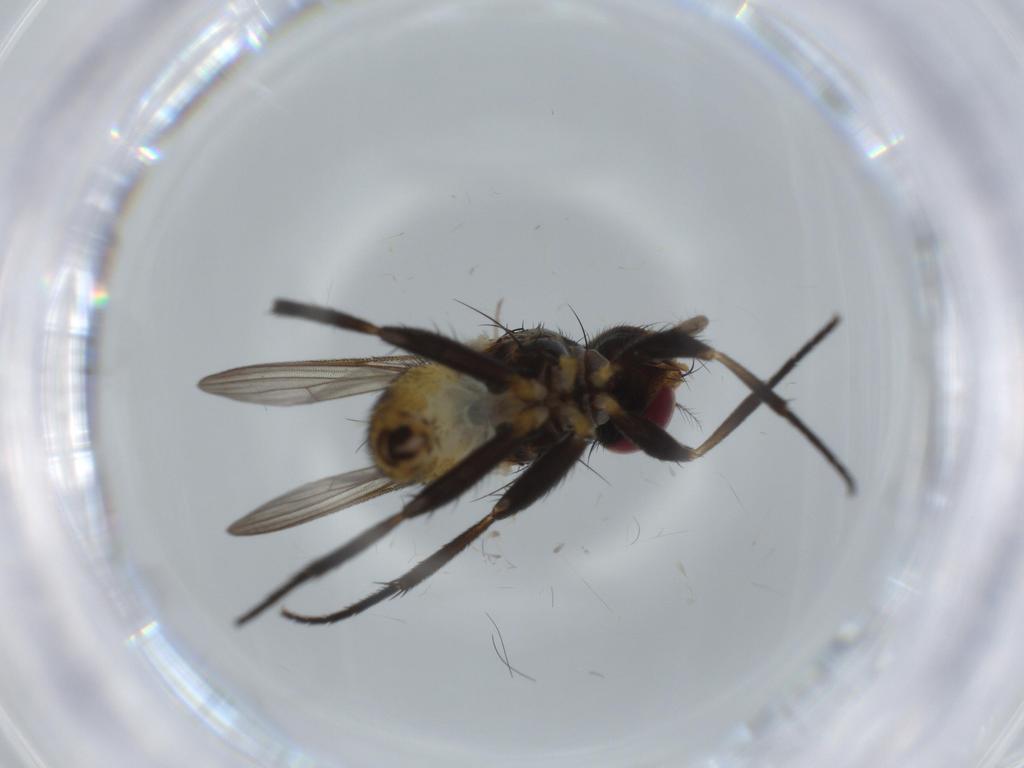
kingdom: Animalia
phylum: Arthropoda
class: Insecta
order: Diptera
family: Anthomyiidae
